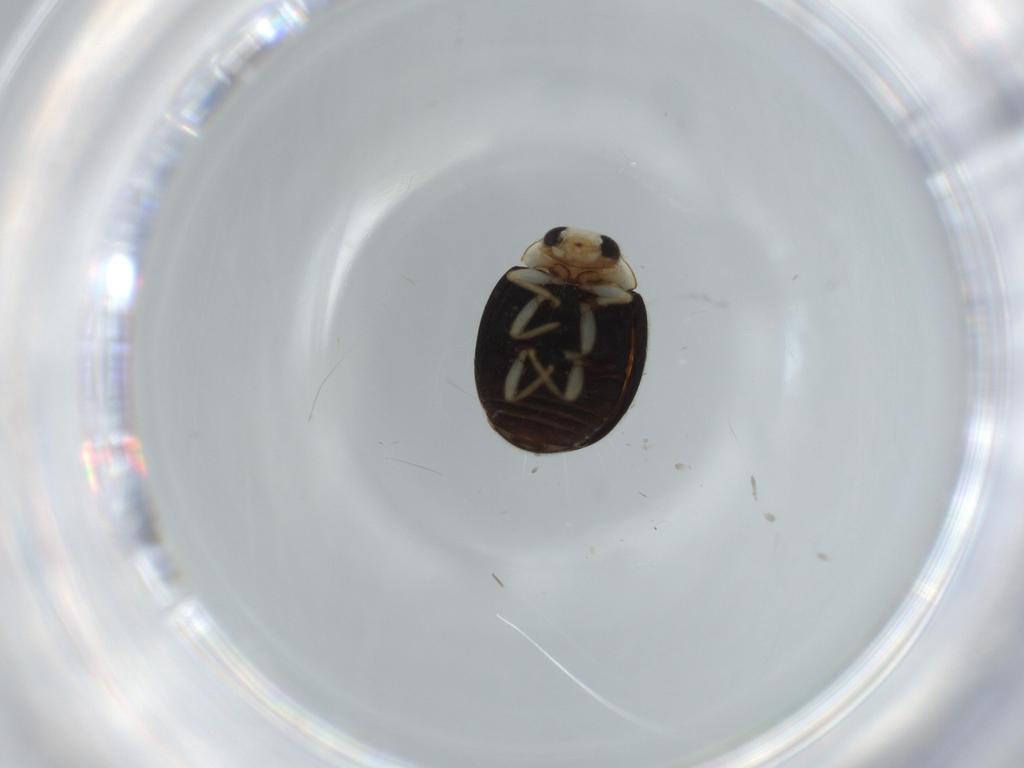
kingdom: Animalia
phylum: Arthropoda
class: Insecta
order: Coleoptera
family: Coccinellidae
